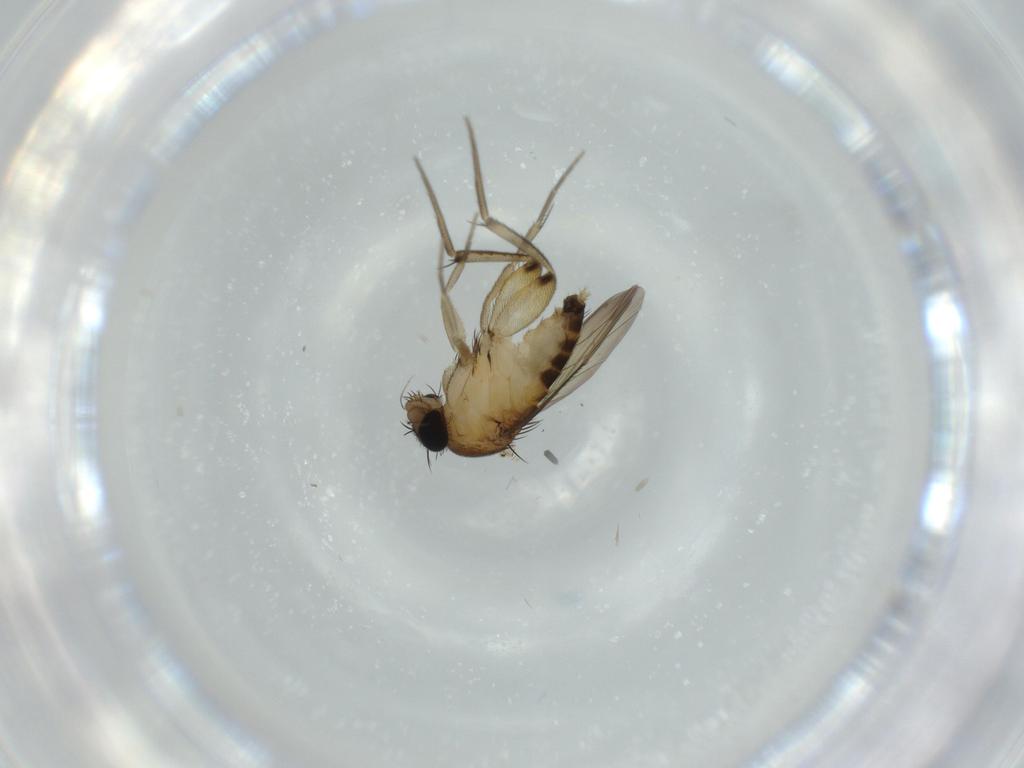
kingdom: Animalia
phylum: Arthropoda
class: Insecta
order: Diptera
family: Phoridae
